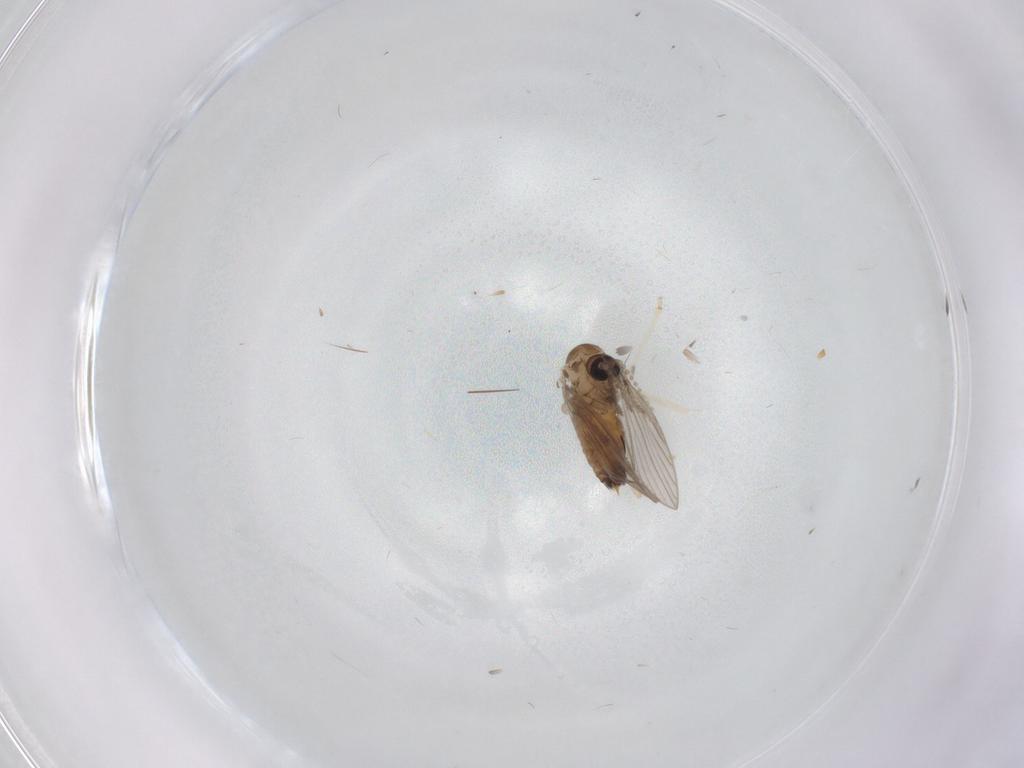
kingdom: Animalia
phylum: Arthropoda
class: Insecta
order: Diptera
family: Psychodidae
